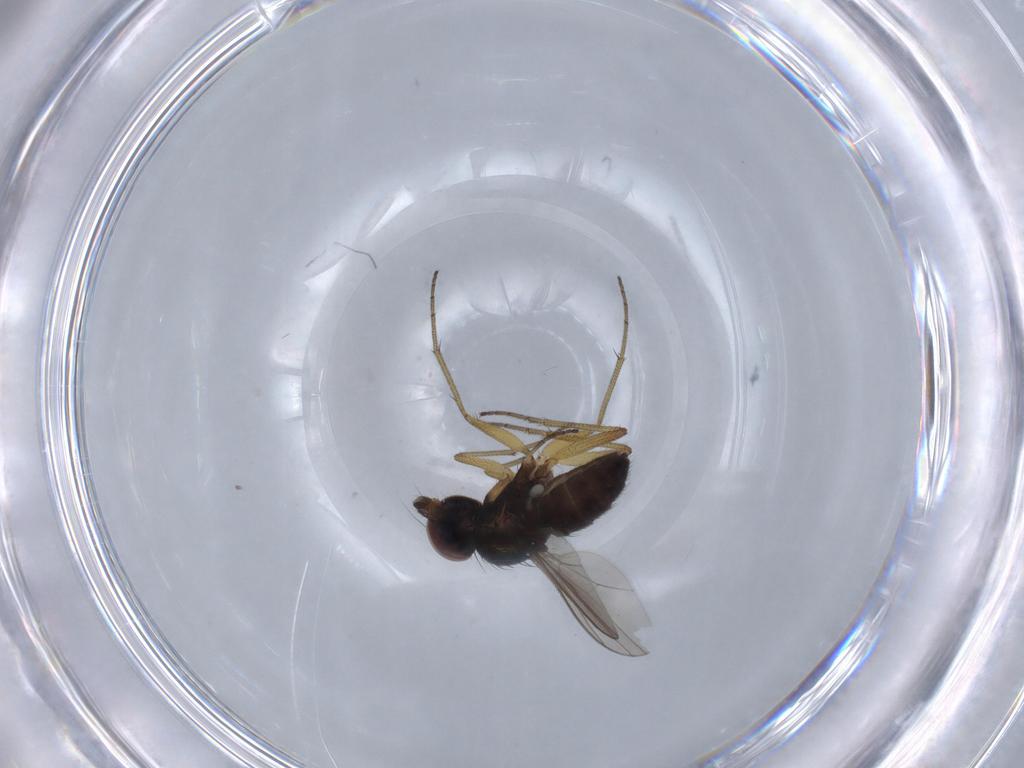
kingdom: Animalia
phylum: Arthropoda
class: Insecta
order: Diptera
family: Dolichopodidae
